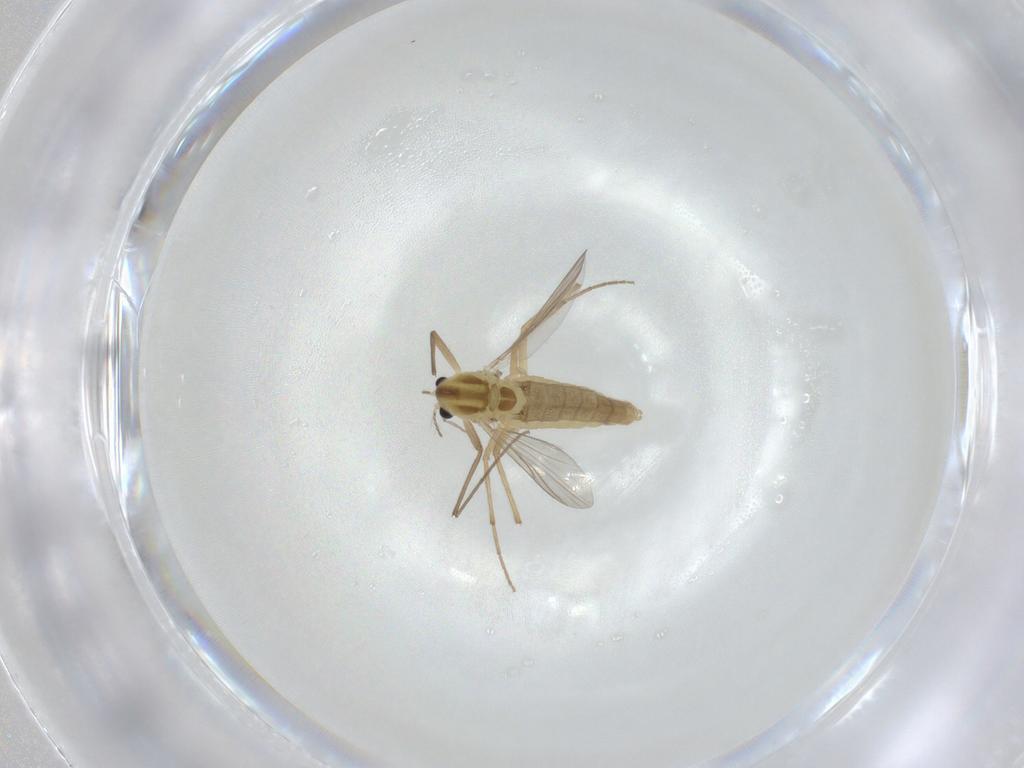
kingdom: Animalia
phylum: Arthropoda
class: Insecta
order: Diptera
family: Chironomidae
